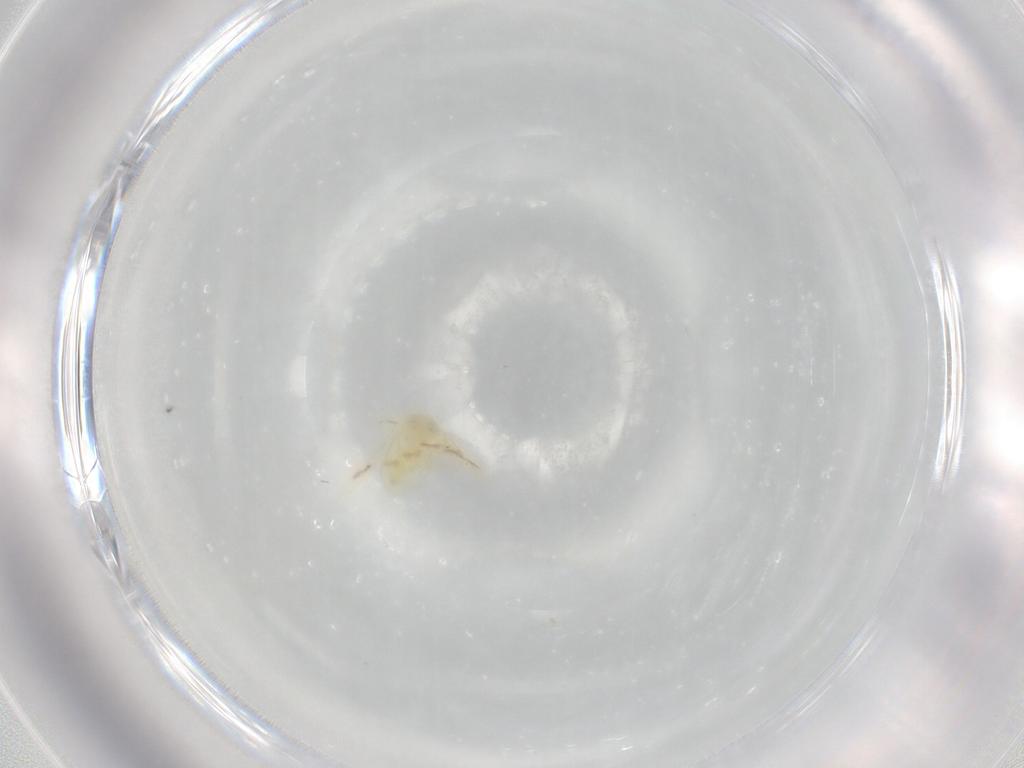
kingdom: Animalia
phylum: Arthropoda
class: Insecta
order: Hemiptera
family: Aleyrodidae
